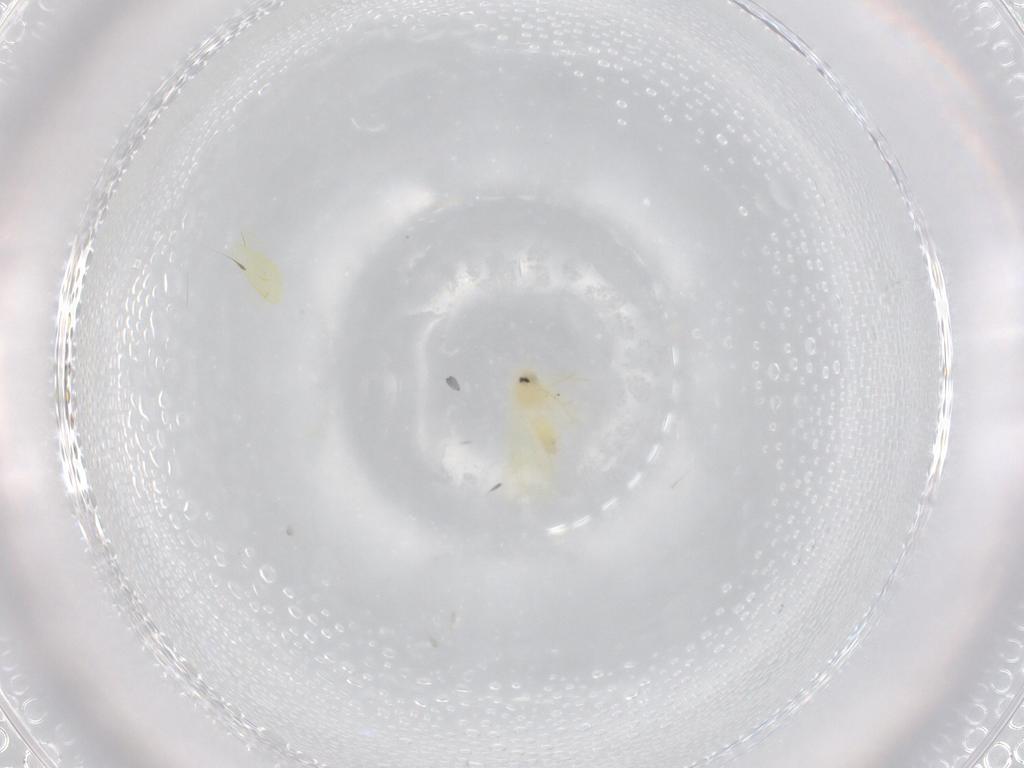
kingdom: Animalia
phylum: Arthropoda
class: Insecta
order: Hemiptera
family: Aleyrodidae
